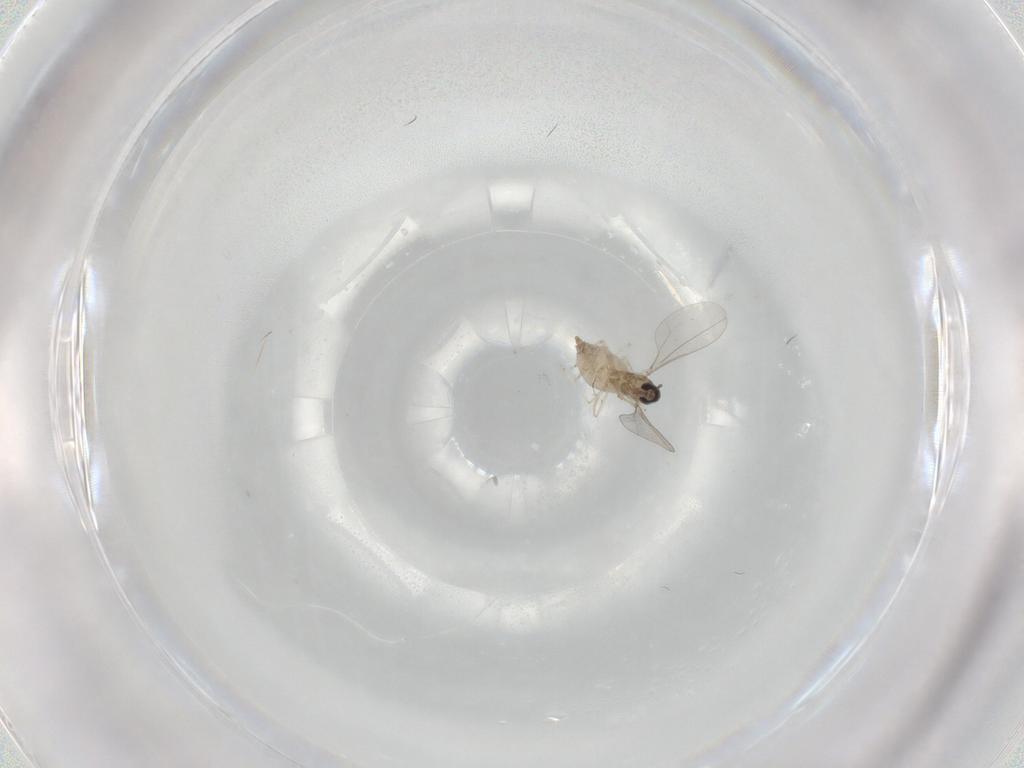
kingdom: Animalia
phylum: Arthropoda
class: Insecta
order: Diptera
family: Cecidomyiidae
